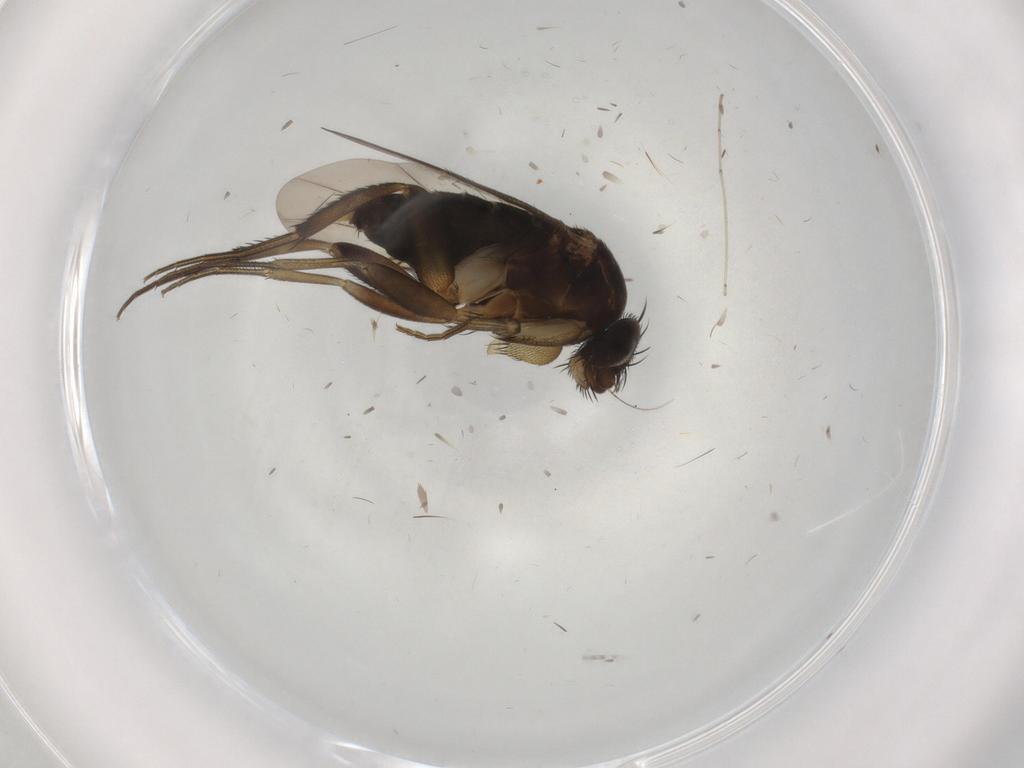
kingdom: Animalia
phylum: Arthropoda
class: Insecta
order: Diptera
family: Phoridae
